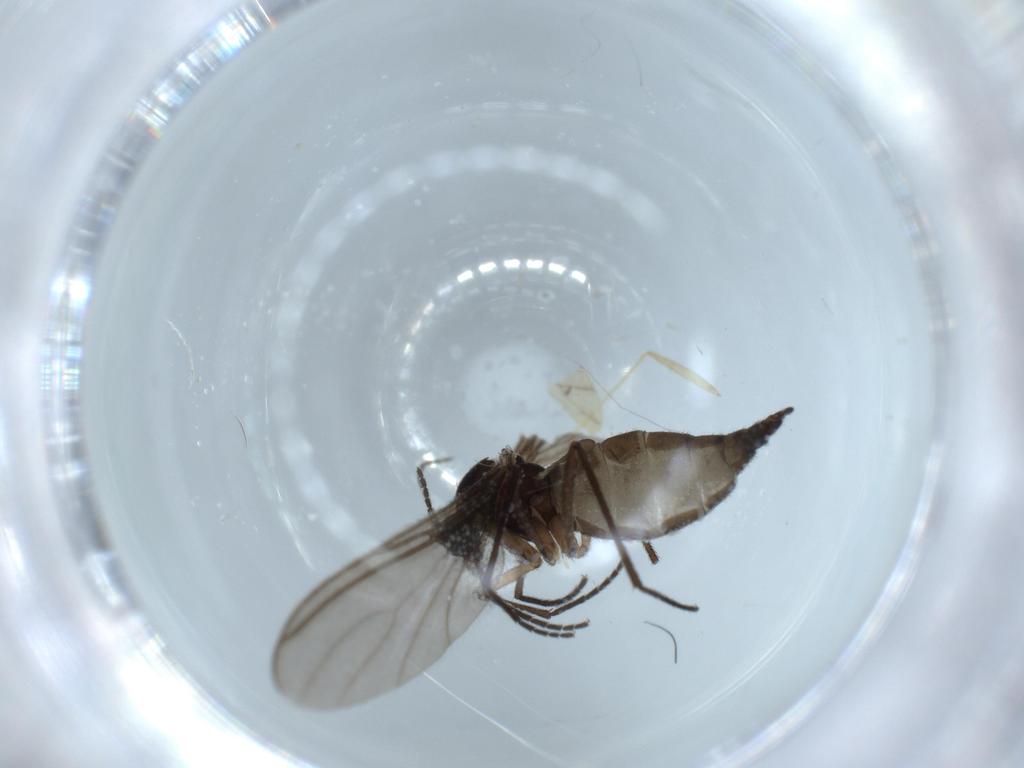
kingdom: Animalia
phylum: Arthropoda
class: Insecta
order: Diptera
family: Sciaridae
